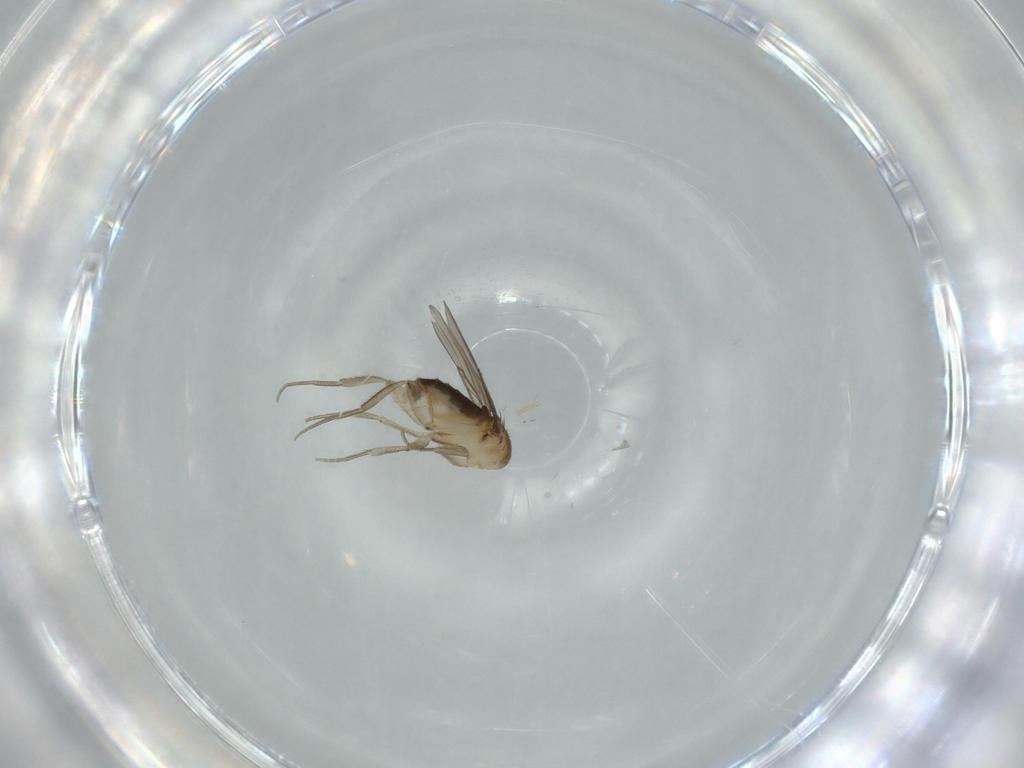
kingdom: Animalia
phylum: Arthropoda
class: Insecta
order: Diptera
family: Phoridae
